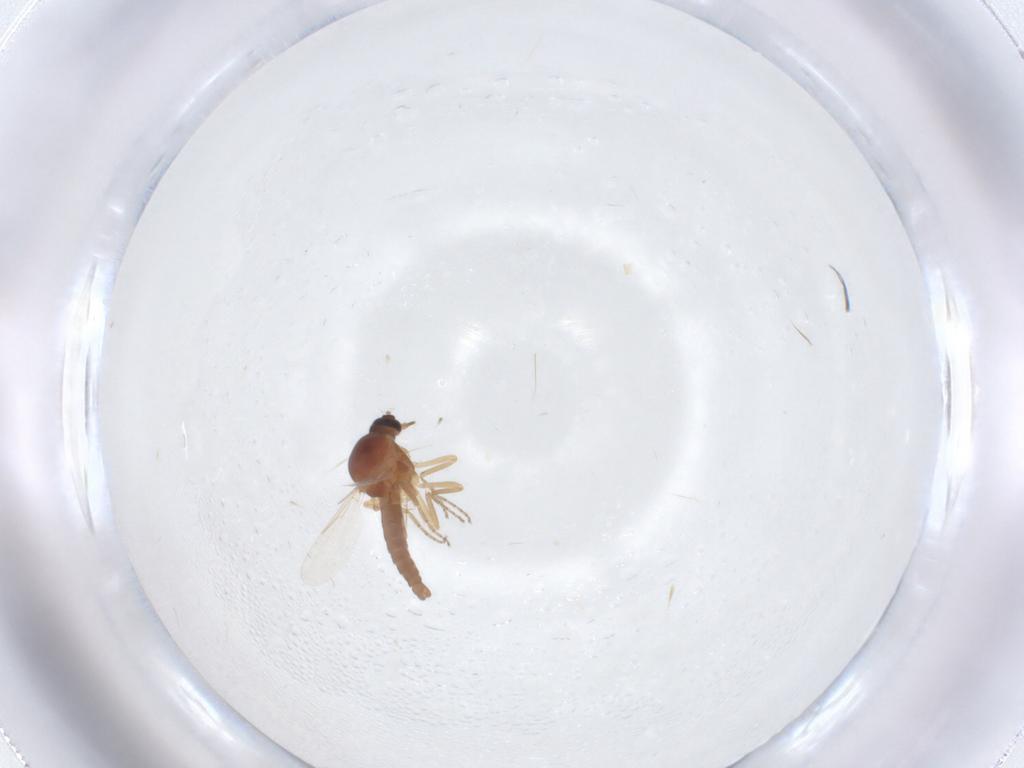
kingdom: Animalia
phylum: Arthropoda
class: Insecta
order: Diptera
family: Ceratopogonidae
